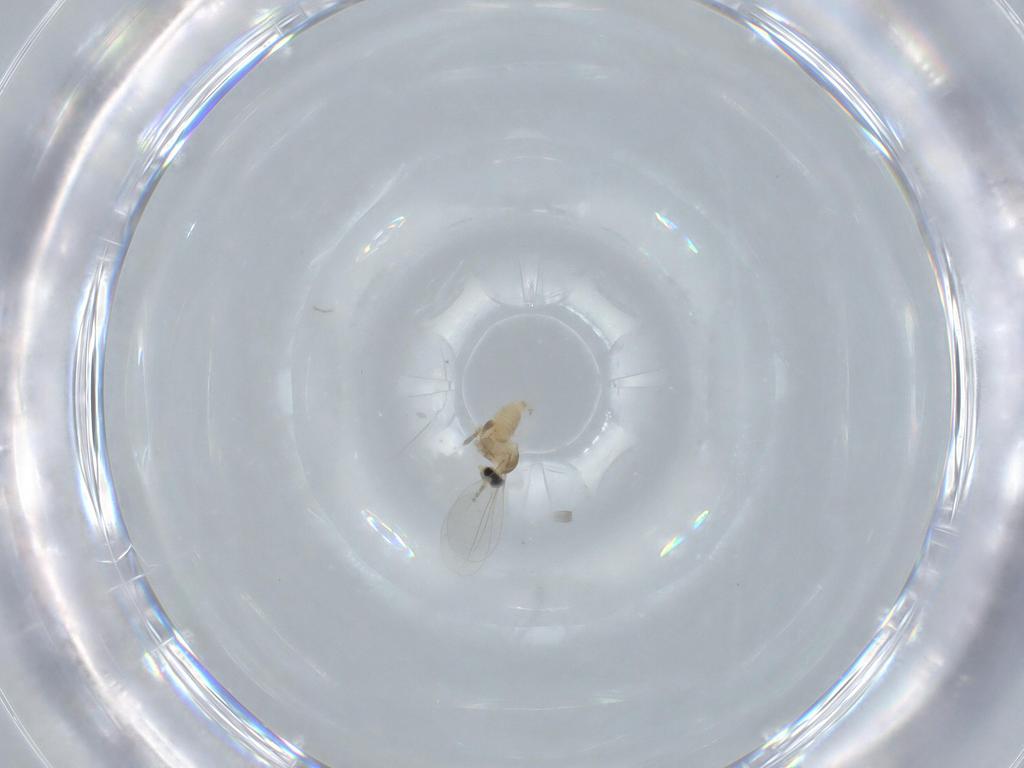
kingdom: Animalia
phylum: Arthropoda
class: Insecta
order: Diptera
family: Cecidomyiidae
